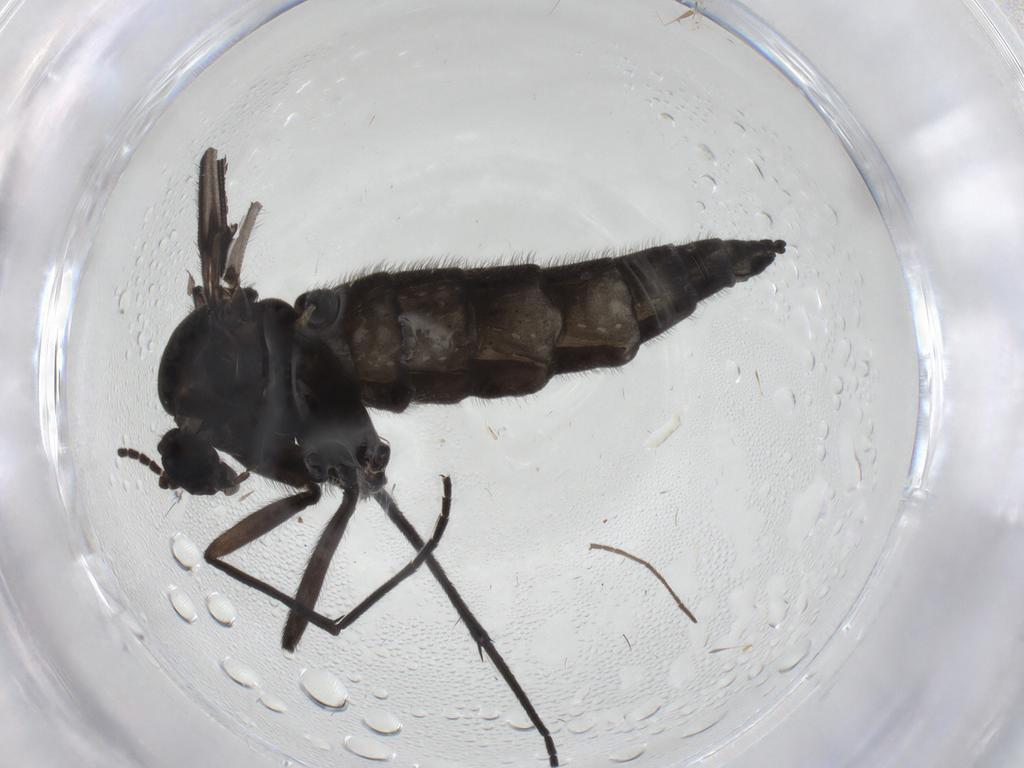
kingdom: Animalia
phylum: Arthropoda
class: Insecta
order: Diptera
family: Sciaridae
